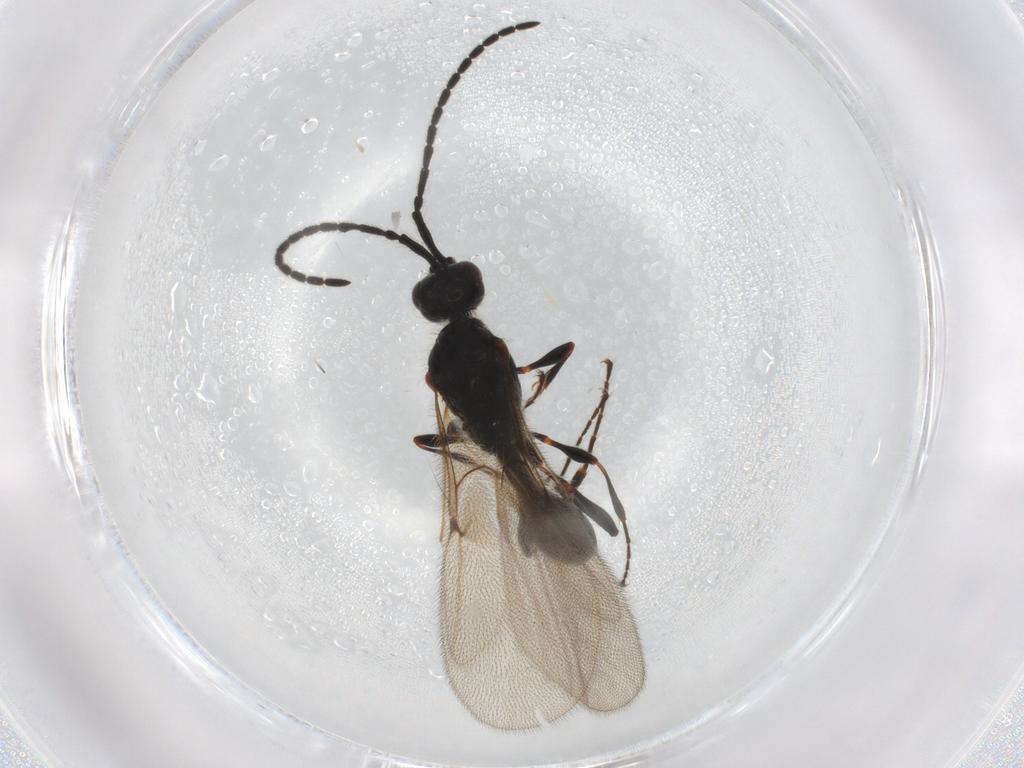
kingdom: Animalia
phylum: Arthropoda
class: Insecta
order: Hymenoptera
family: Diapriidae
